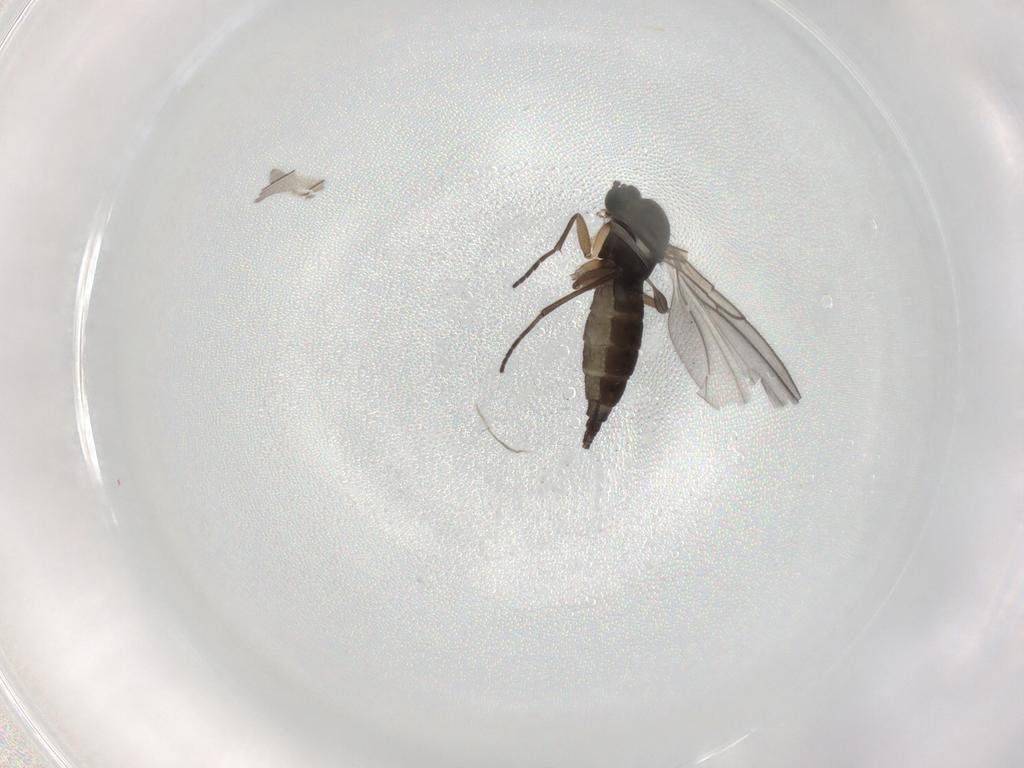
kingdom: Animalia
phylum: Arthropoda
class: Insecta
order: Diptera
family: Sciaridae
